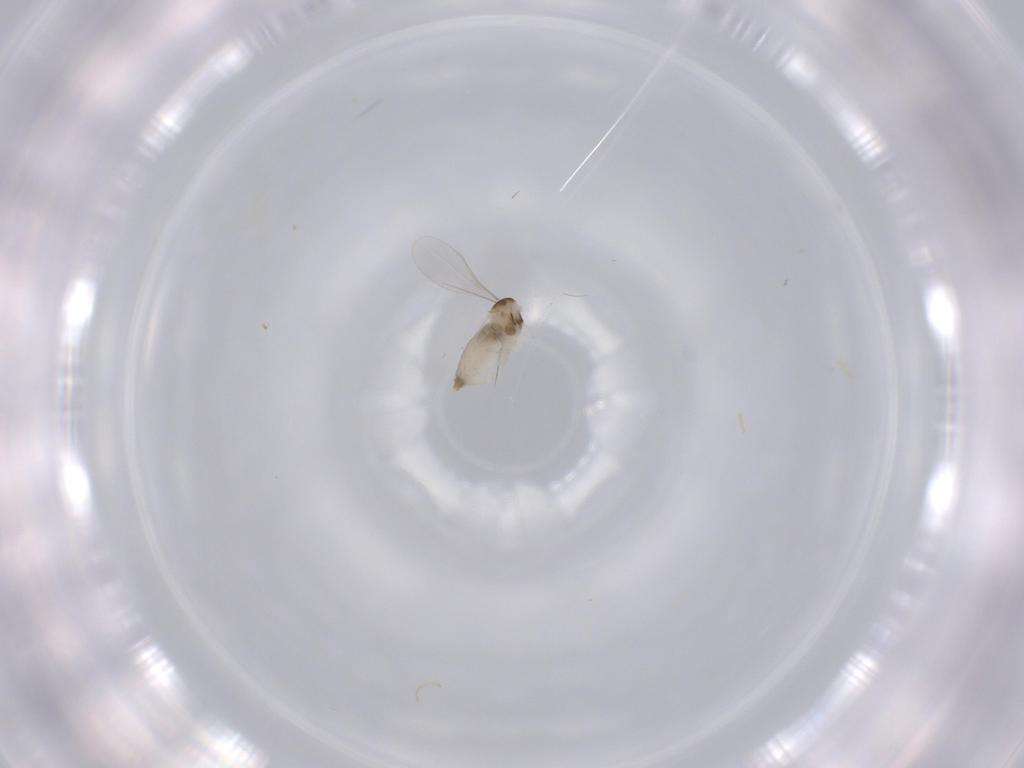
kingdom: Animalia
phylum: Arthropoda
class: Insecta
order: Diptera
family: Cecidomyiidae
